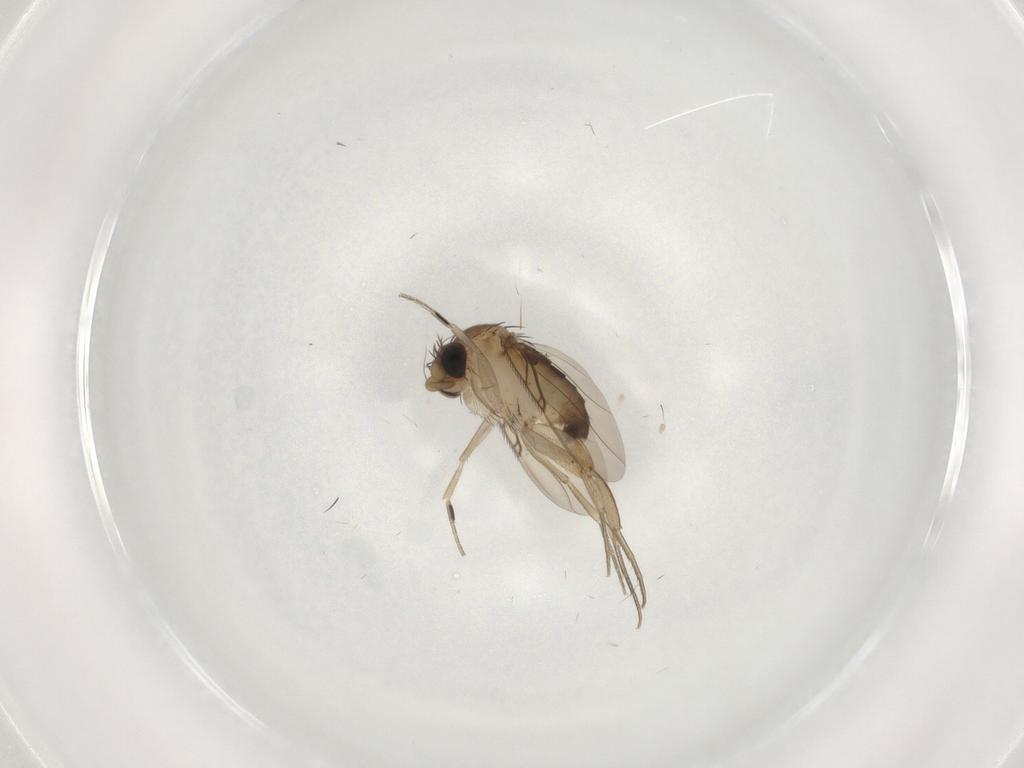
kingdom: Animalia
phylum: Arthropoda
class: Insecta
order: Diptera
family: Phoridae
